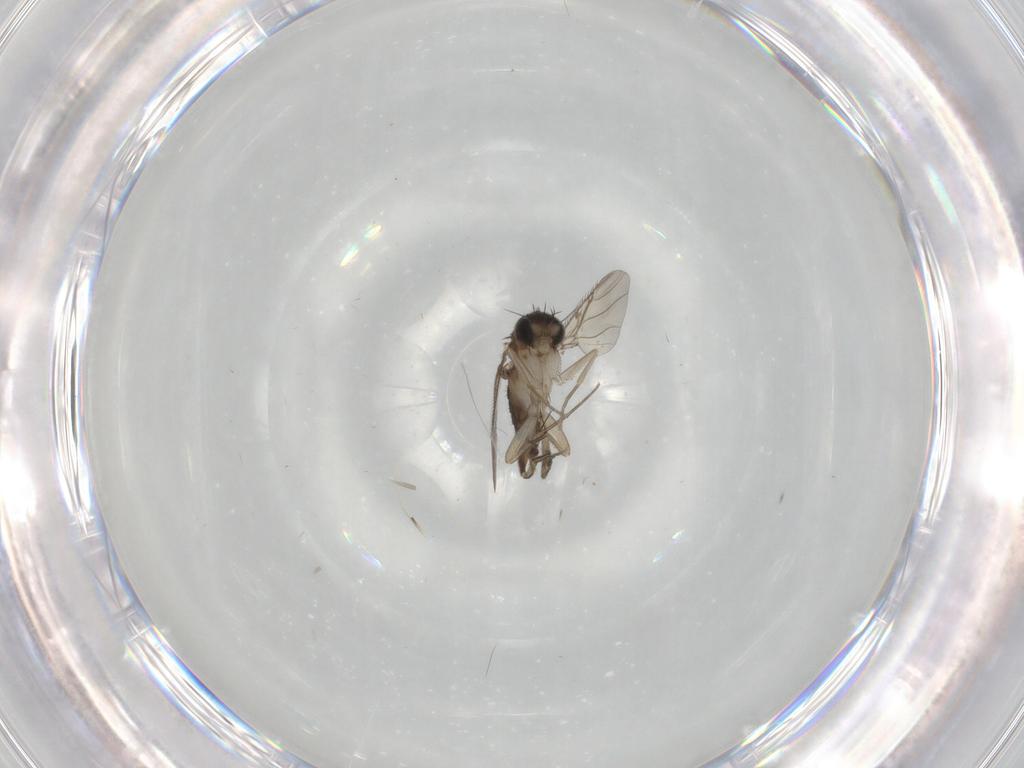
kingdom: Animalia
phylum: Arthropoda
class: Insecta
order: Diptera
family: Phoridae
